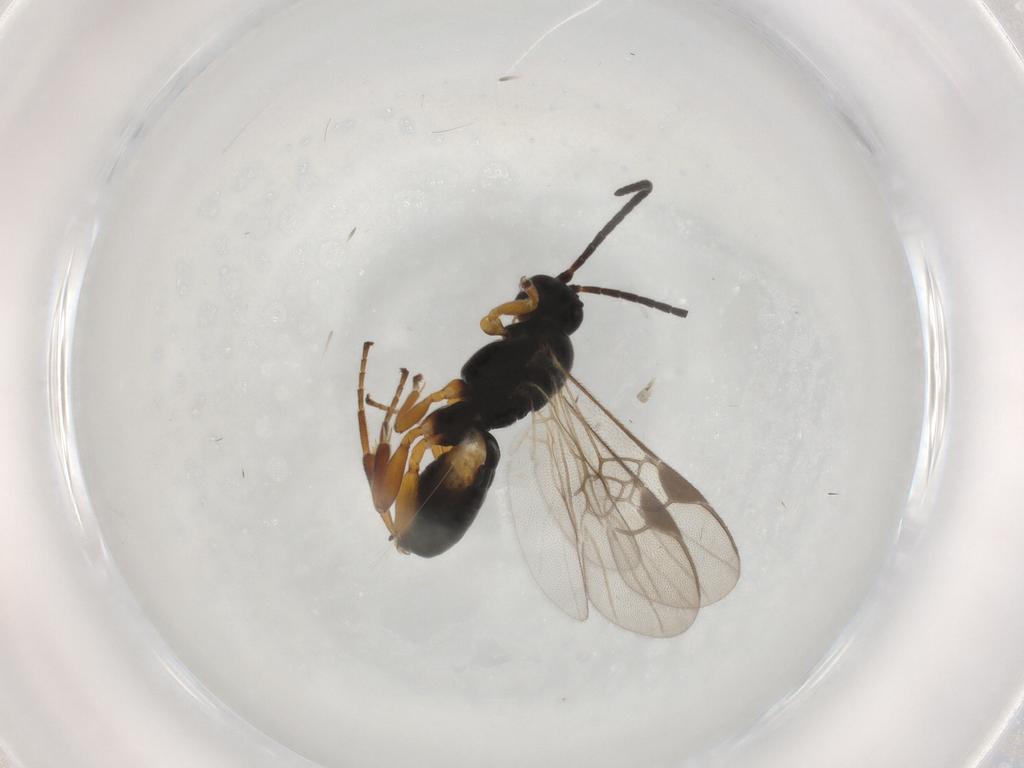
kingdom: Animalia
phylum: Arthropoda
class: Insecta
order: Hymenoptera
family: Braconidae
